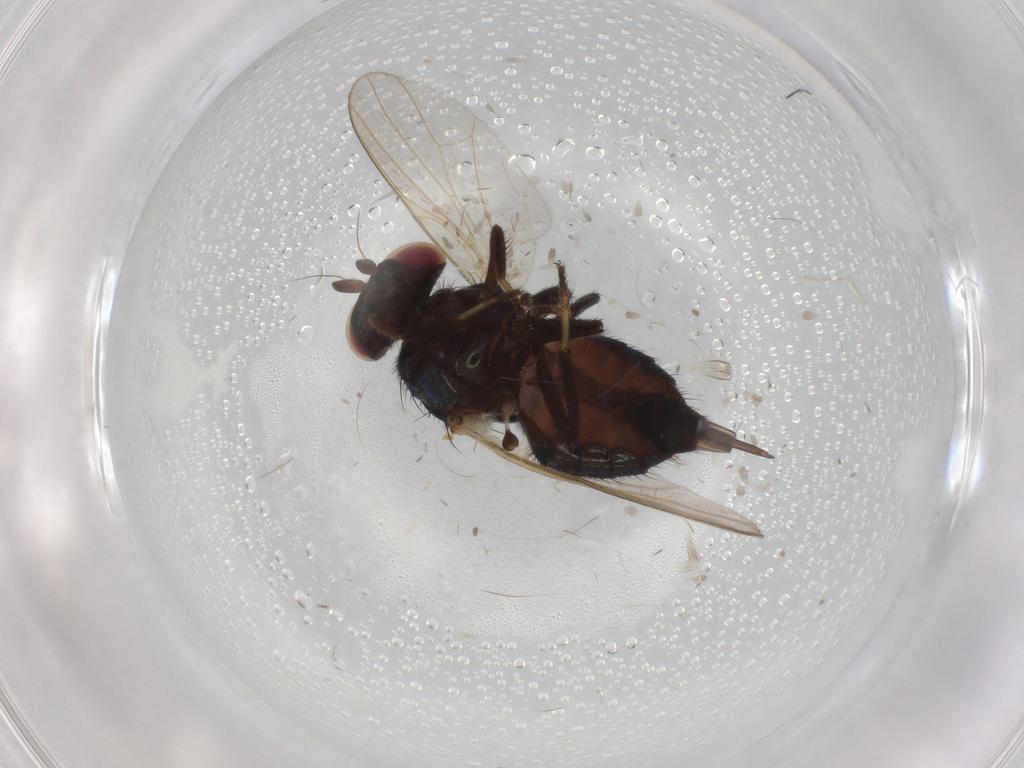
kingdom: Animalia
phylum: Arthropoda
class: Insecta
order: Diptera
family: Lonchaeidae
